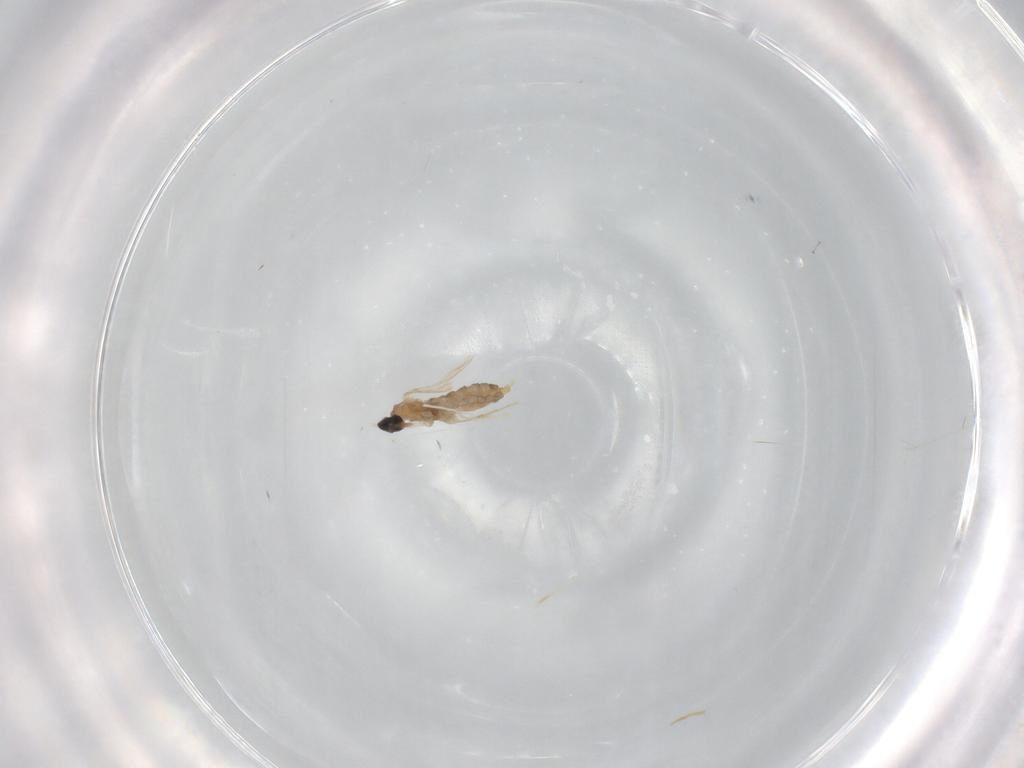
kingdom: Animalia
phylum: Arthropoda
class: Insecta
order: Diptera
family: Cecidomyiidae
